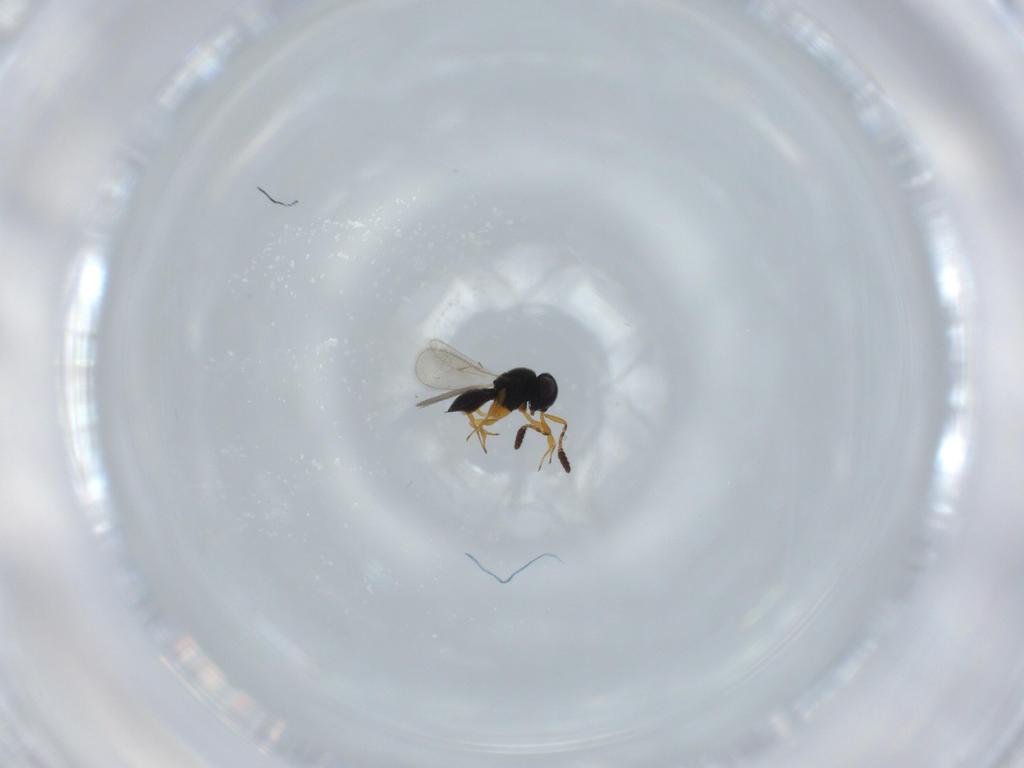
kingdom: Animalia
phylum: Arthropoda
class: Insecta
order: Hymenoptera
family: Scelionidae
